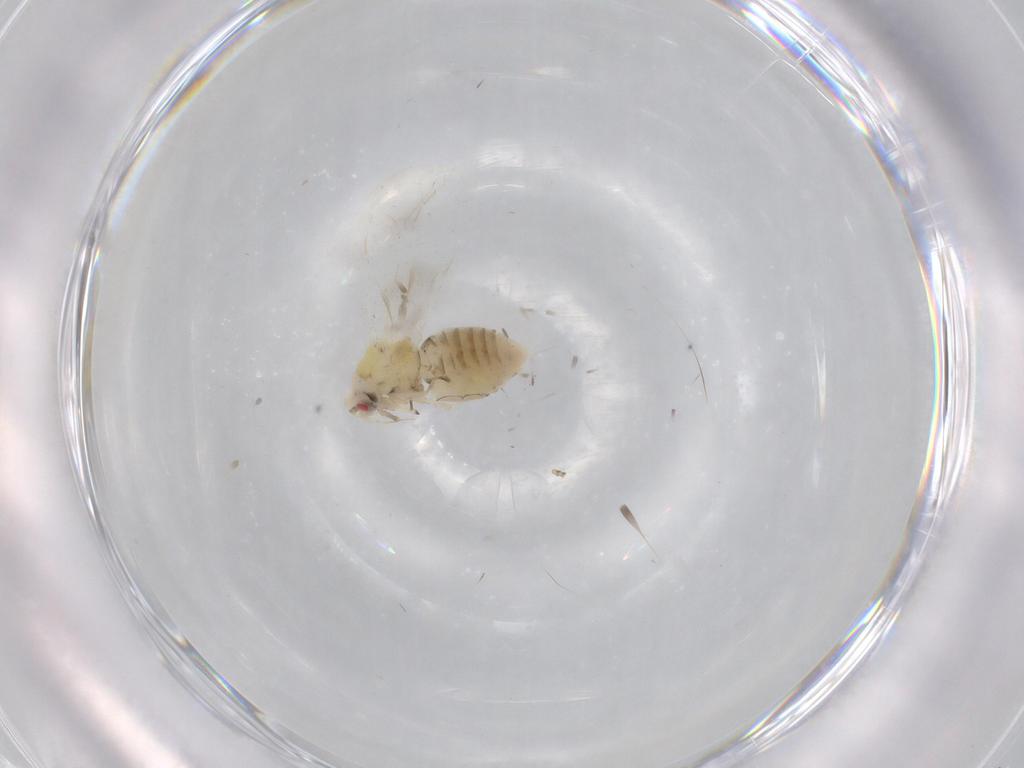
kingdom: Animalia
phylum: Arthropoda
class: Insecta
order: Hemiptera
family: Aleyrodidae
